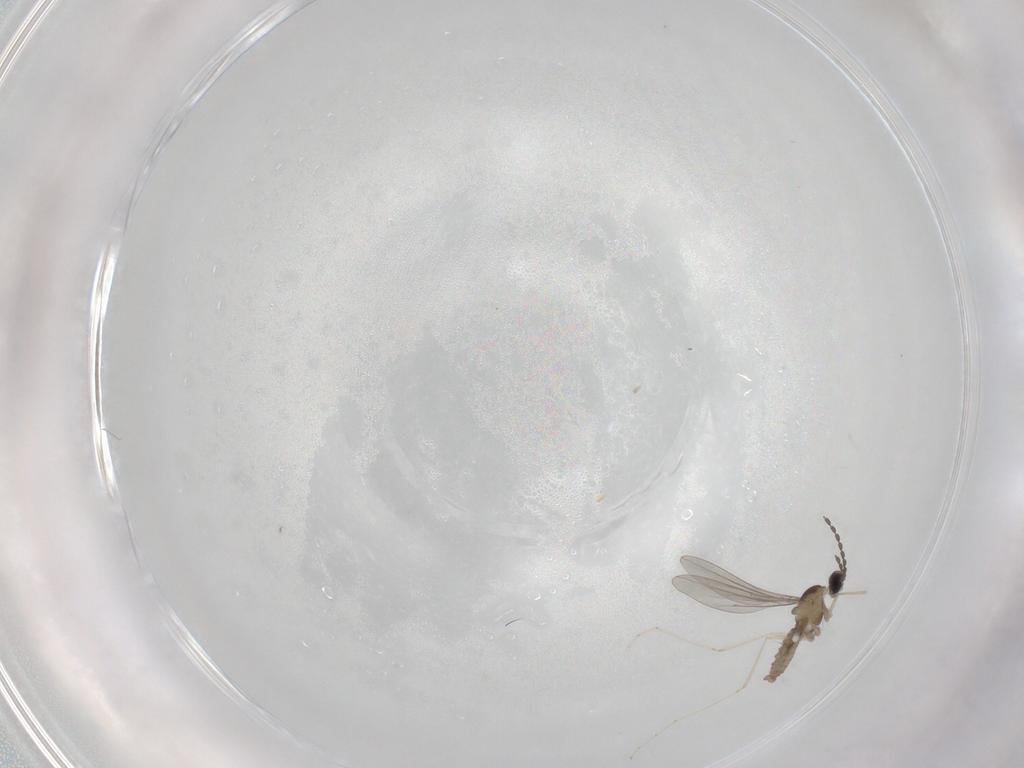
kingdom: Animalia
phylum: Arthropoda
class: Insecta
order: Diptera
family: Cecidomyiidae
